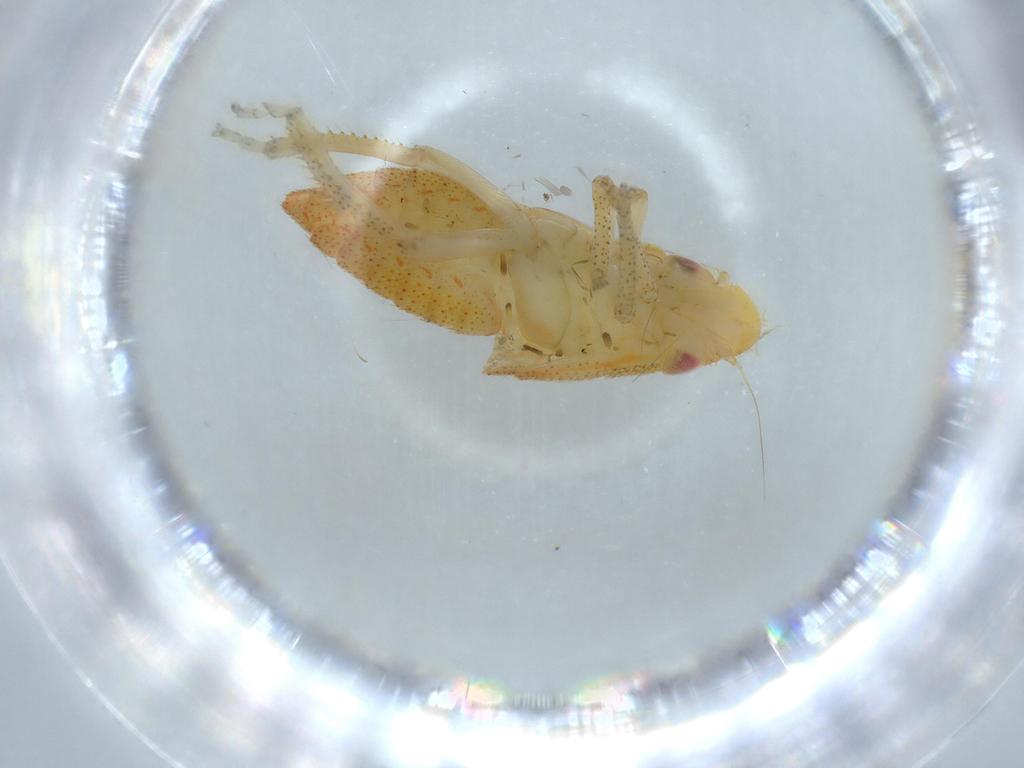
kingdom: Animalia
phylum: Arthropoda
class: Insecta
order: Hemiptera
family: Cicadellidae
